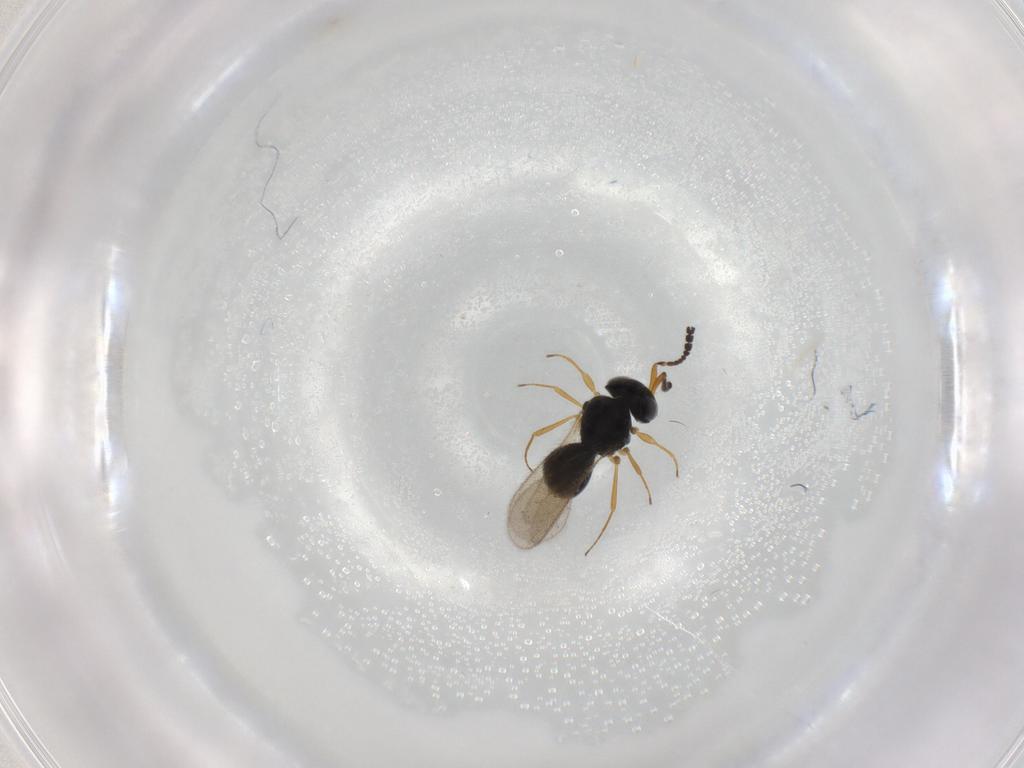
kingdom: Animalia
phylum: Arthropoda
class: Insecta
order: Hymenoptera
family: Scelionidae
